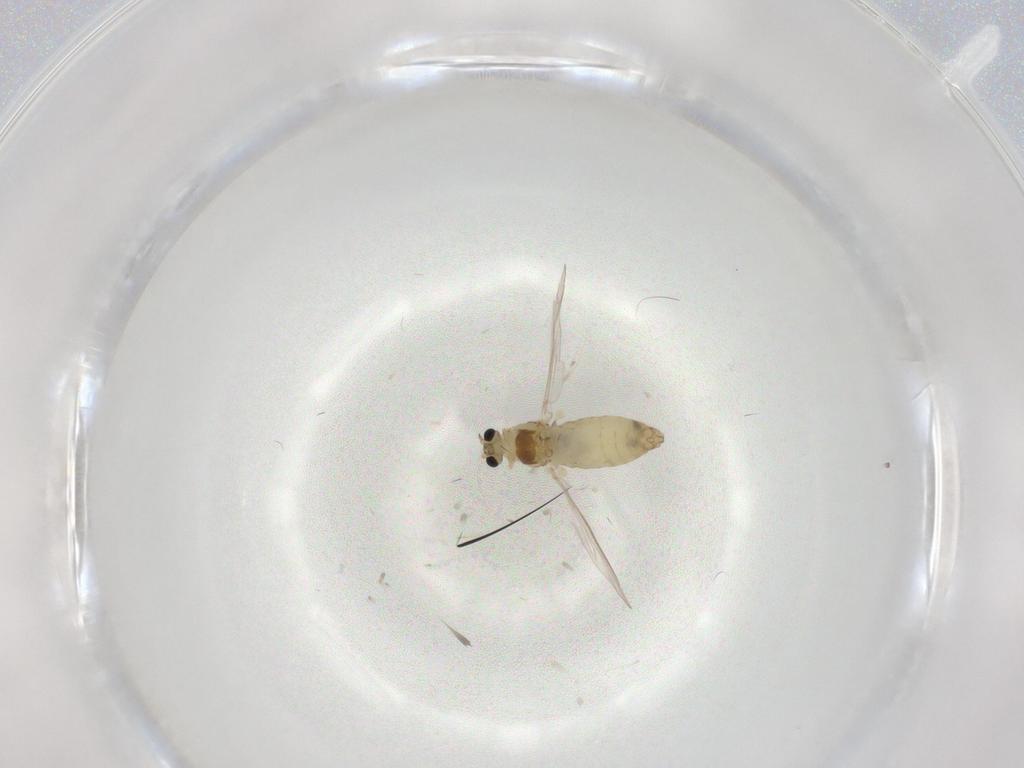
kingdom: Animalia
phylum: Arthropoda
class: Insecta
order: Diptera
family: Chironomidae
